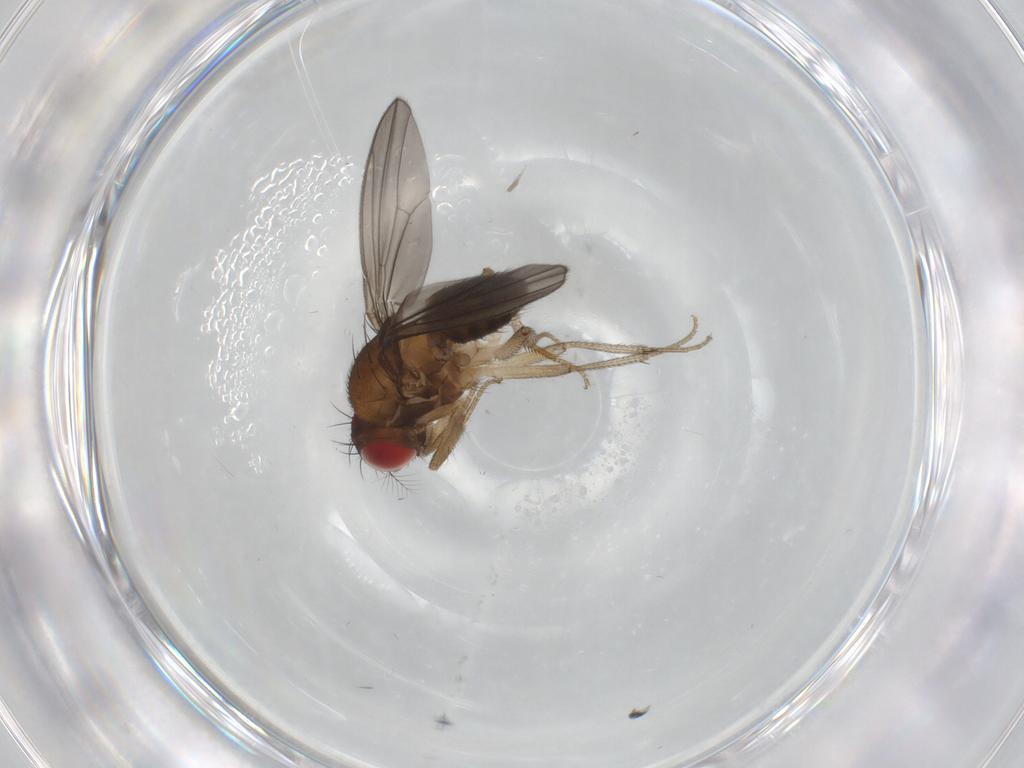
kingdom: Animalia
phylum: Arthropoda
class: Insecta
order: Diptera
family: Drosophilidae
